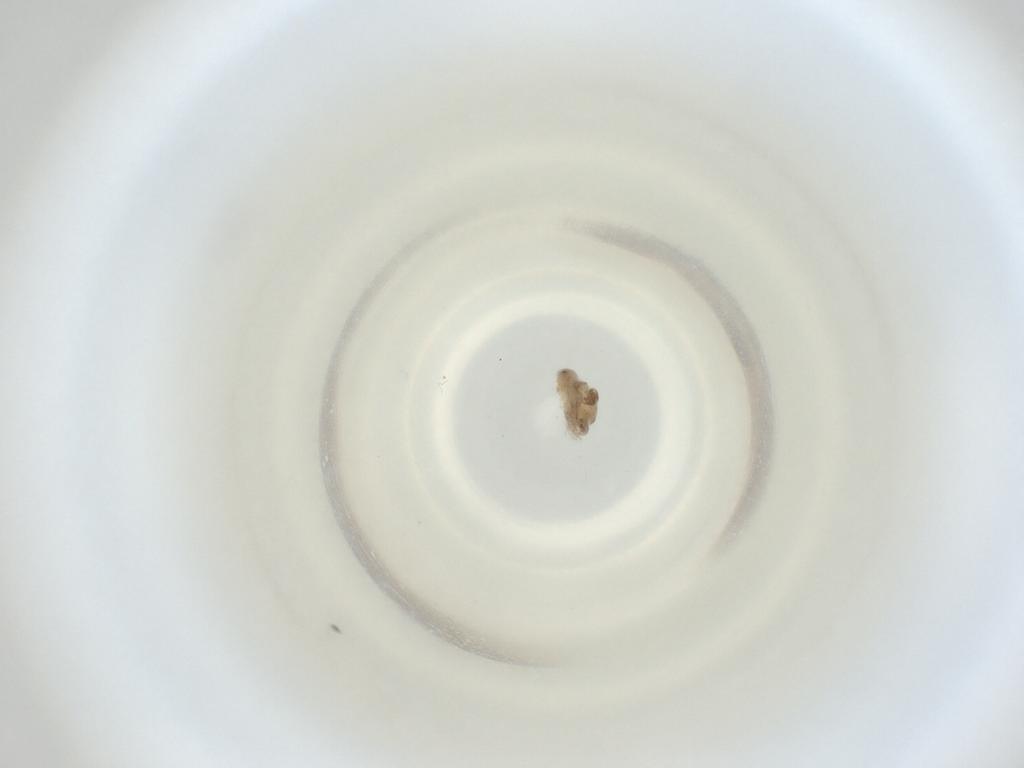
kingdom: Animalia
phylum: Arthropoda
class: Insecta
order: Diptera
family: Cecidomyiidae
